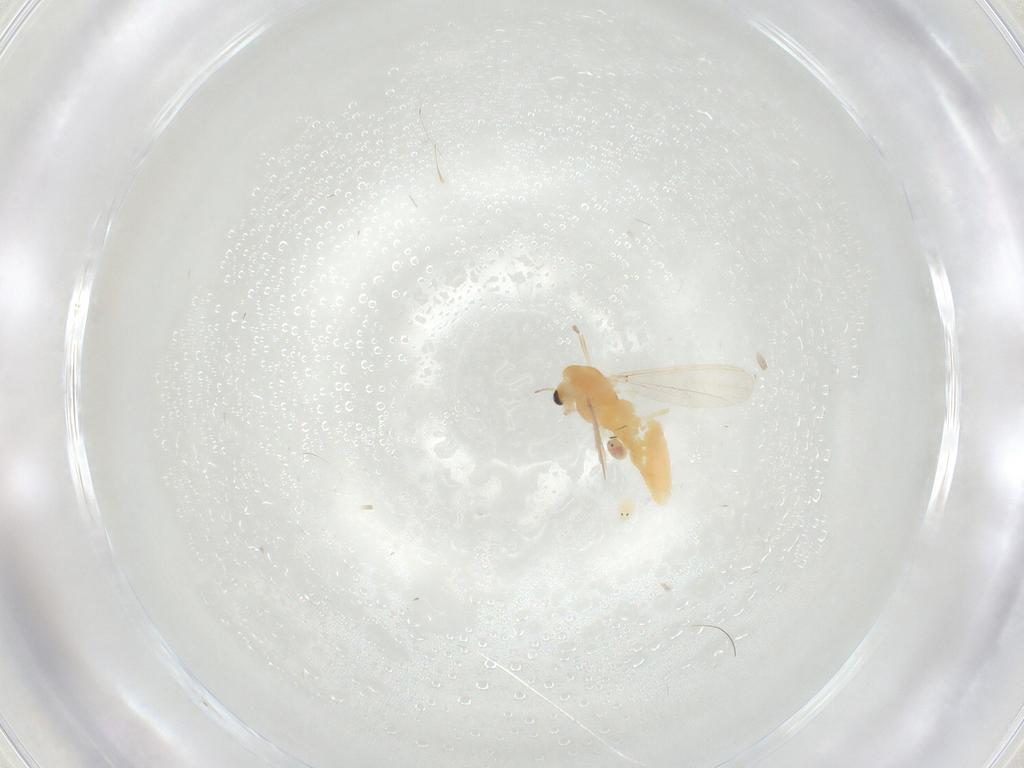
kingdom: Animalia
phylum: Arthropoda
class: Insecta
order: Diptera
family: Chironomidae
